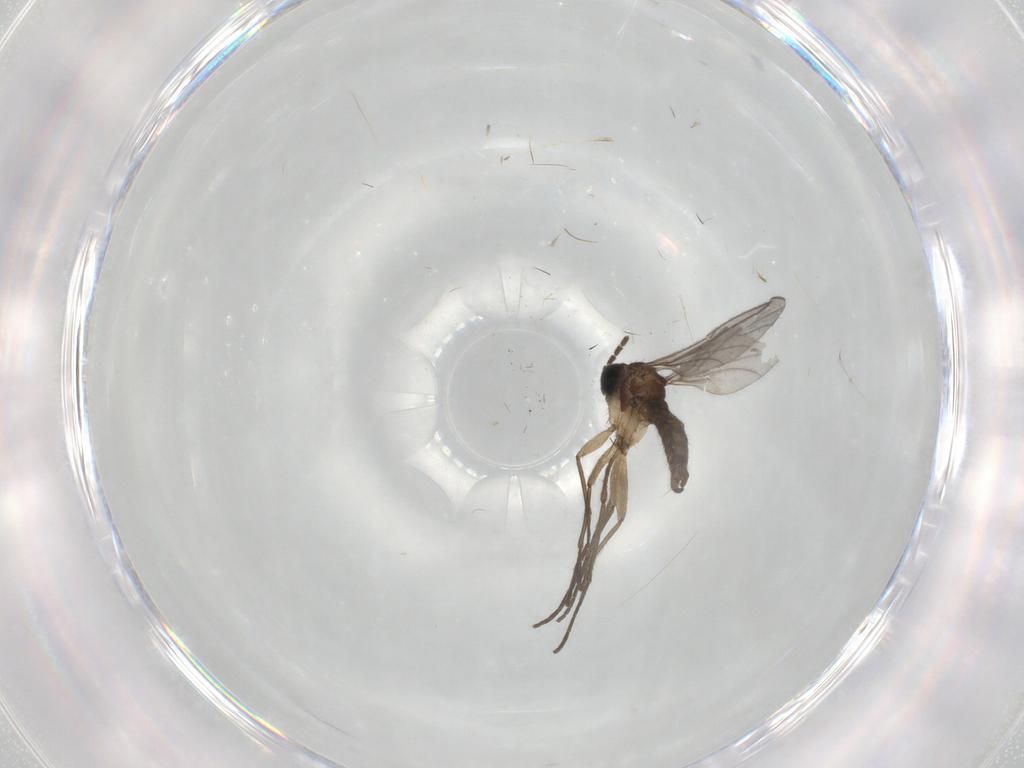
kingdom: Animalia
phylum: Arthropoda
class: Insecta
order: Diptera
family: Sciaridae
